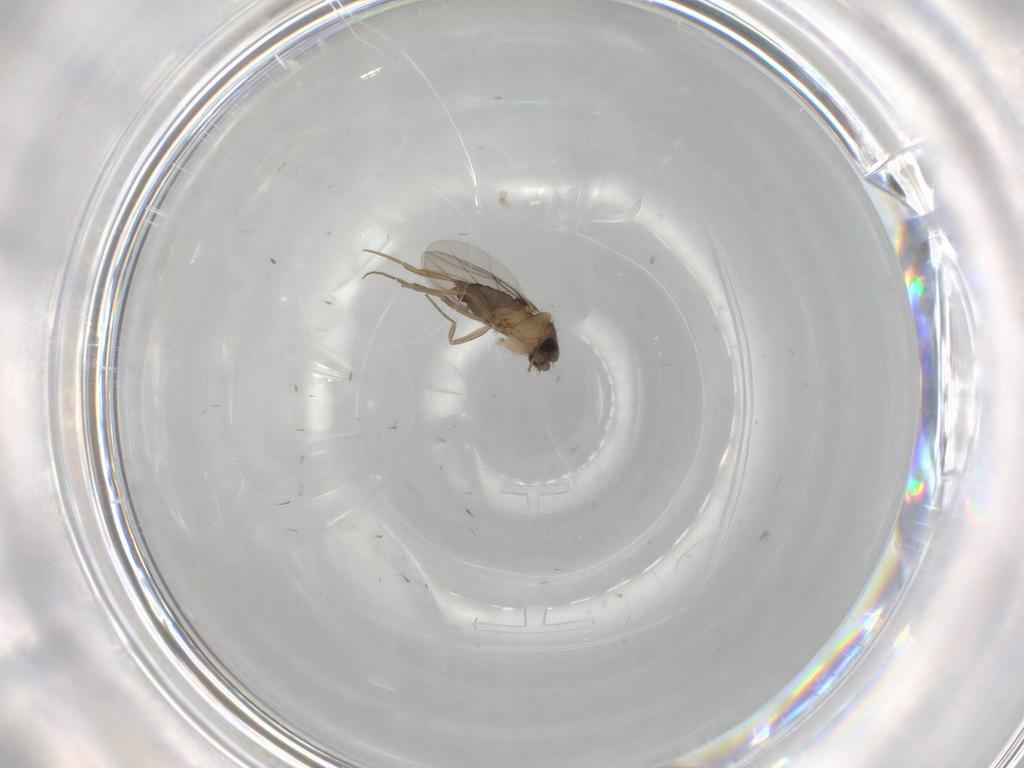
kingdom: Animalia
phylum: Arthropoda
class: Insecta
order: Diptera
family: Phoridae
